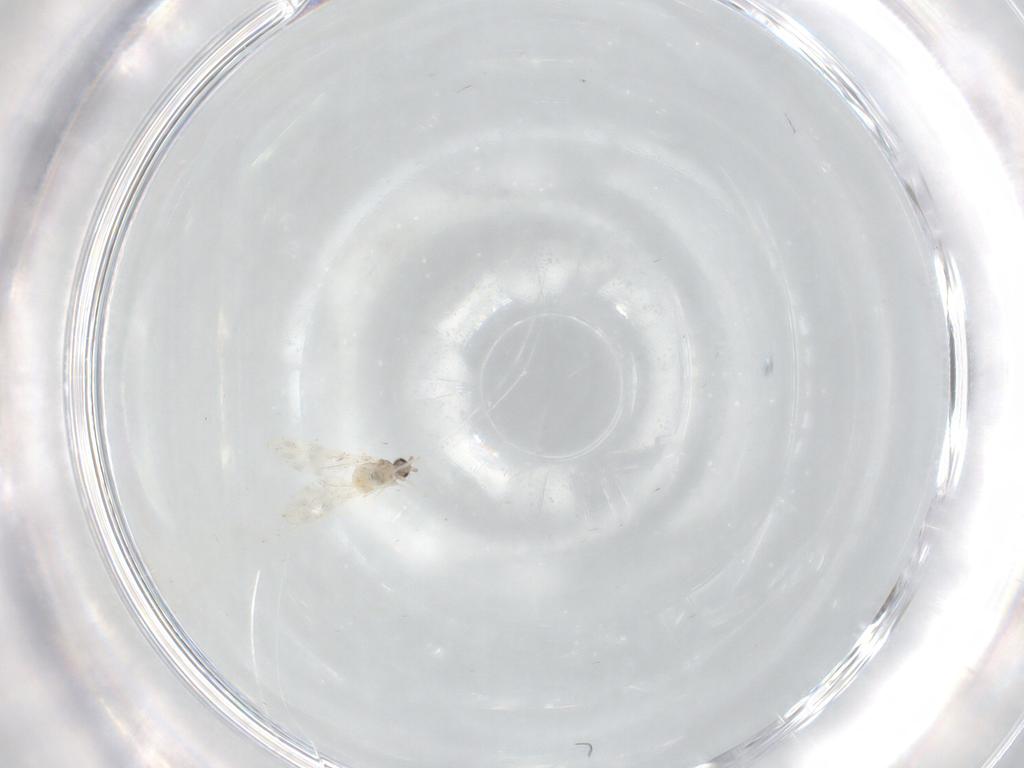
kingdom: Animalia
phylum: Arthropoda
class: Insecta
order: Diptera
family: Cecidomyiidae
